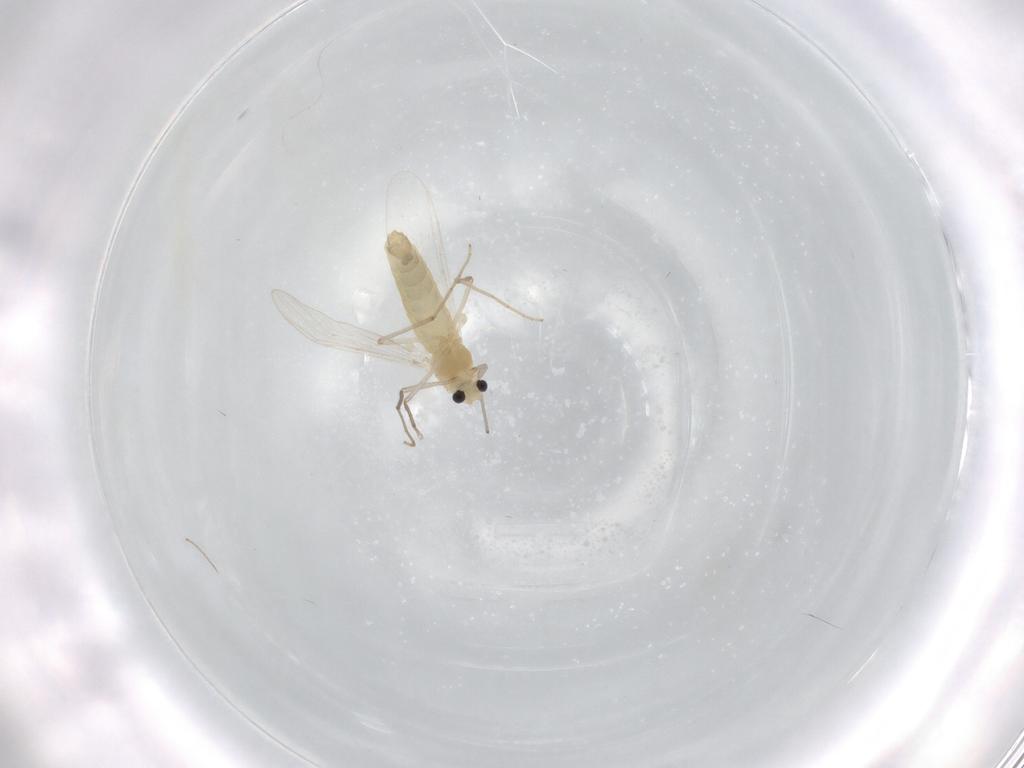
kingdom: Animalia
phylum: Arthropoda
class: Insecta
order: Diptera
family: Chironomidae
